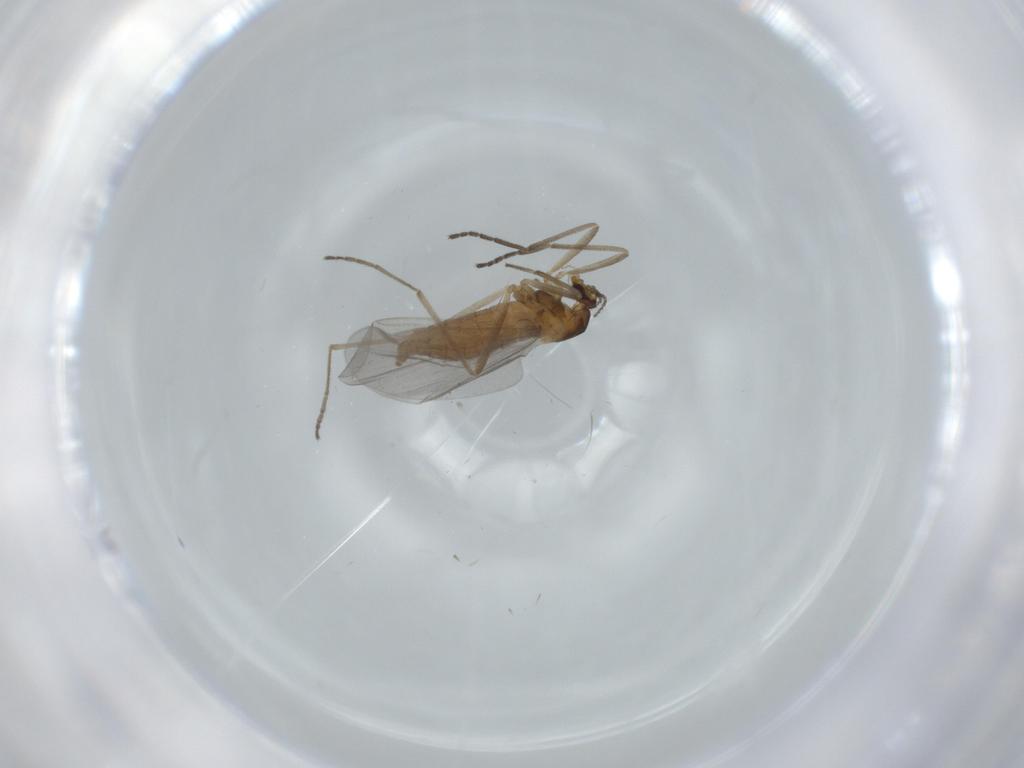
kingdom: Animalia
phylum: Arthropoda
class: Insecta
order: Diptera
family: Cecidomyiidae
